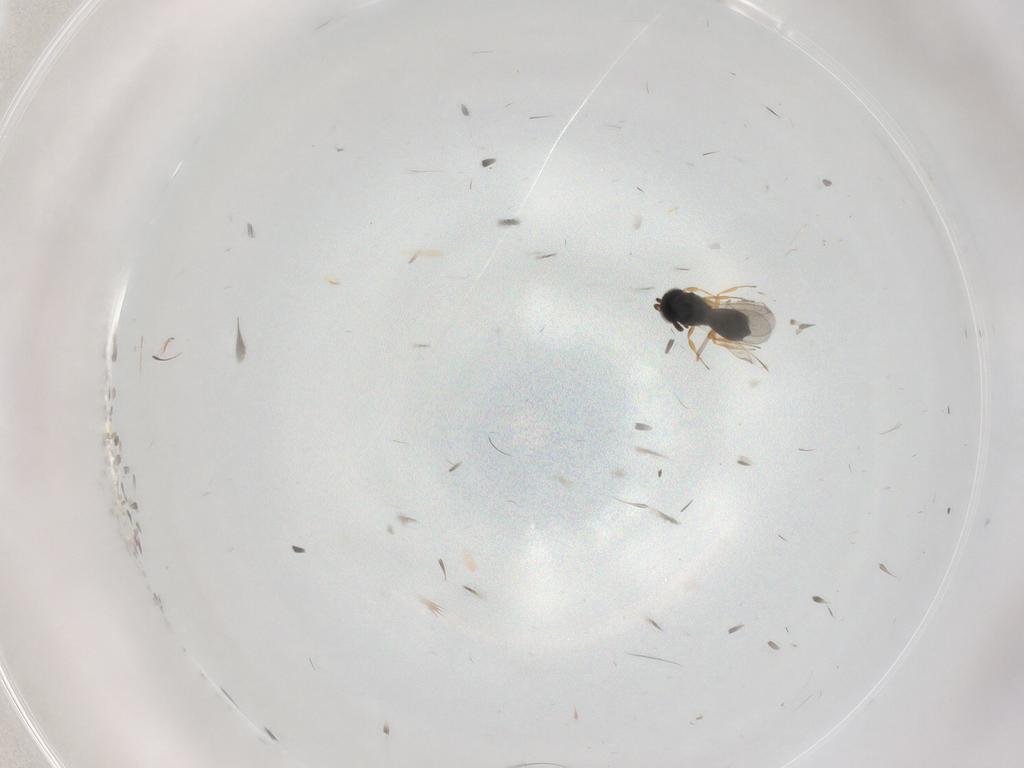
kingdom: Animalia
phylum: Arthropoda
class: Insecta
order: Hymenoptera
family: Scelionidae
